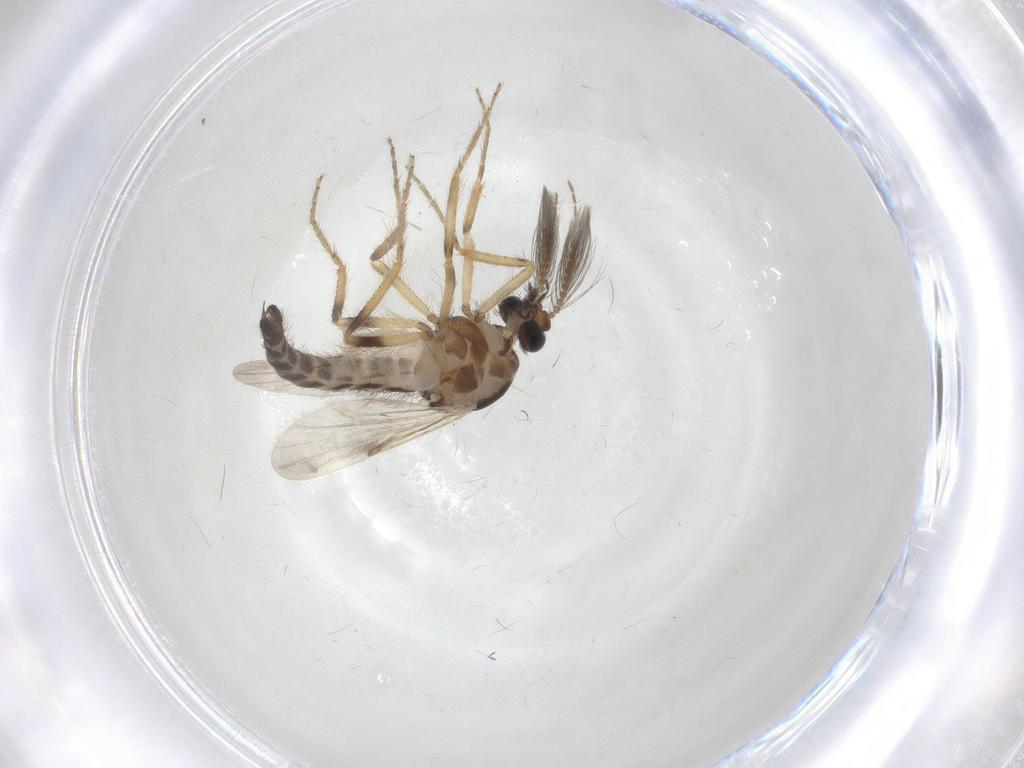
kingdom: Animalia
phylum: Arthropoda
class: Insecta
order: Diptera
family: Ceratopogonidae
